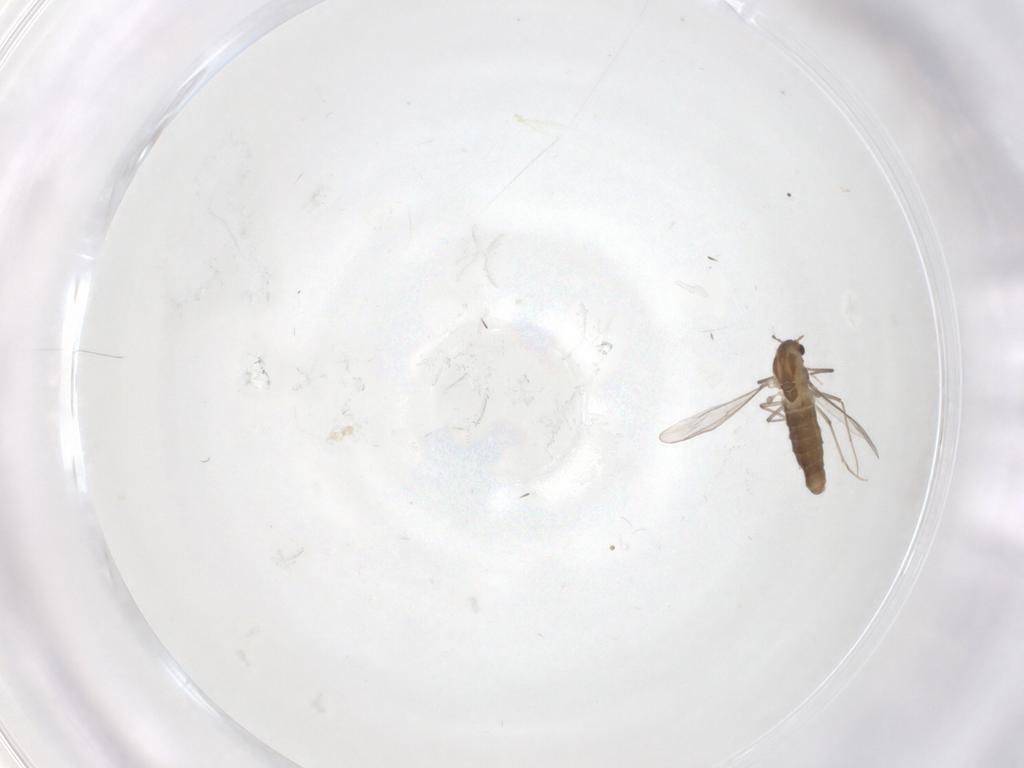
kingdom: Animalia
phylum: Arthropoda
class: Insecta
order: Diptera
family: Chironomidae
